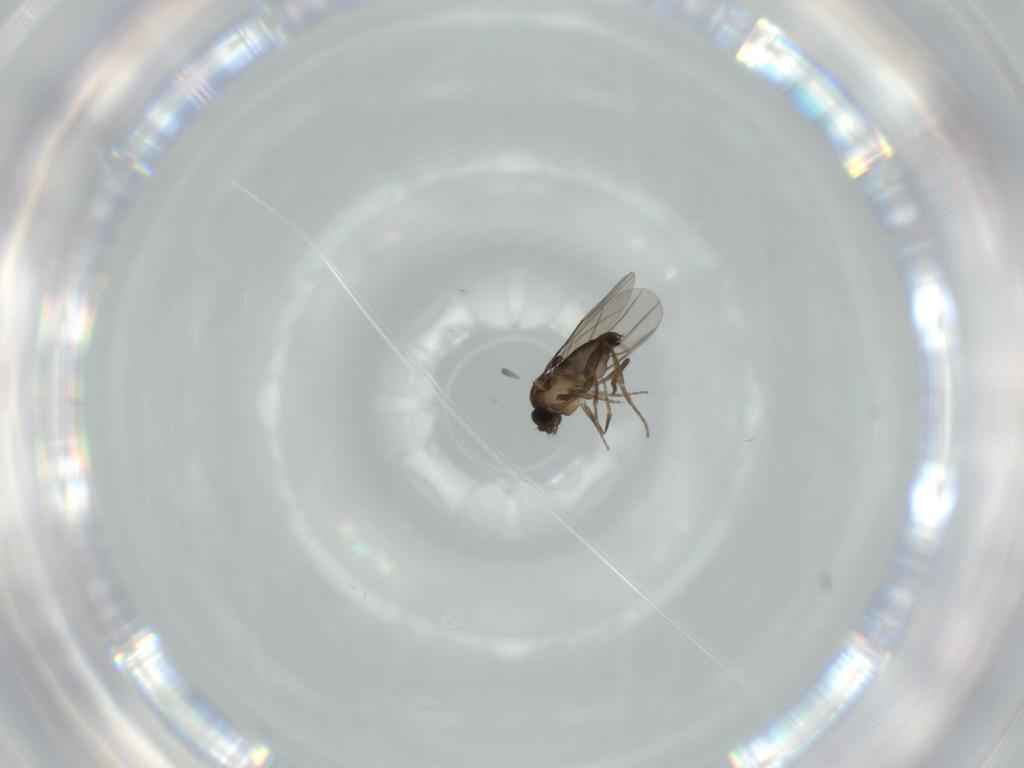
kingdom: Animalia
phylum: Arthropoda
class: Insecta
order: Diptera
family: Phoridae
